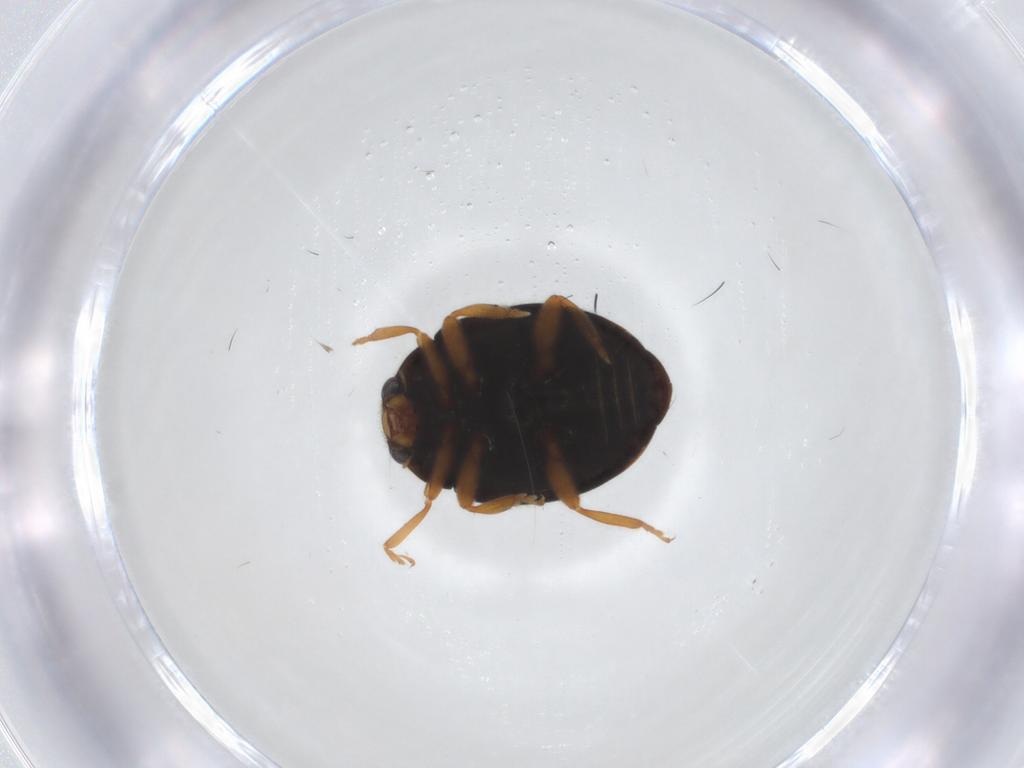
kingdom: Animalia
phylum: Arthropoda
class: Insecta
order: Coleoptera
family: Coccinellidae
